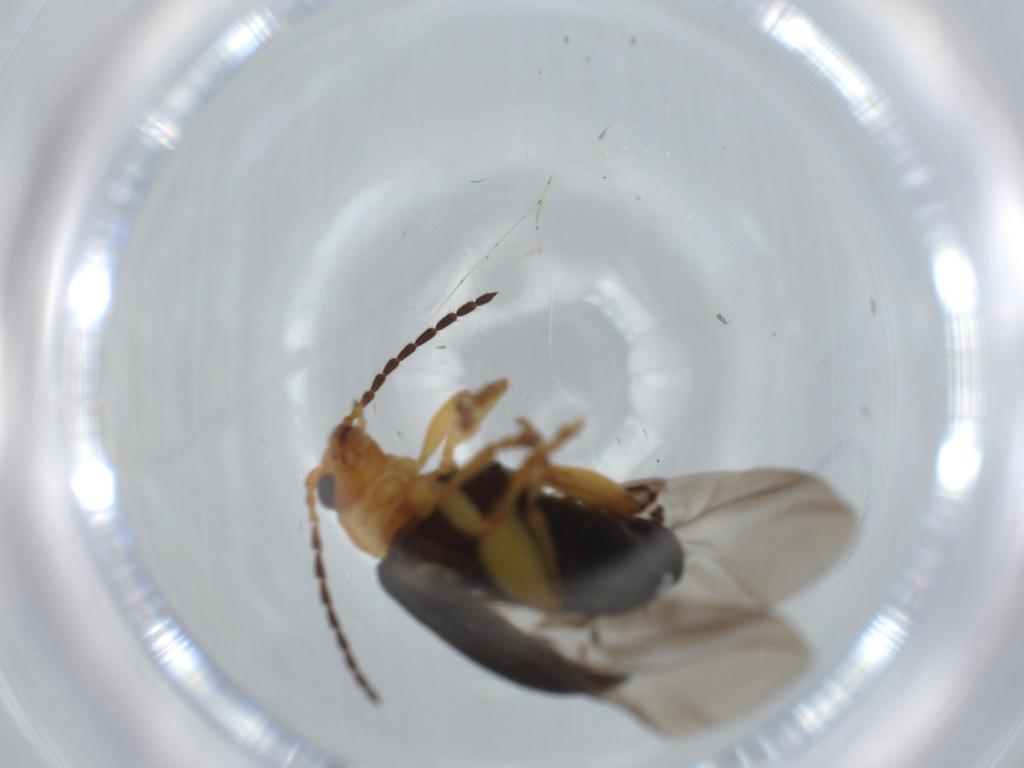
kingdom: Animalia
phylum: Arthropoda
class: Insecta
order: Coleoptera
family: Chrysomelidae
